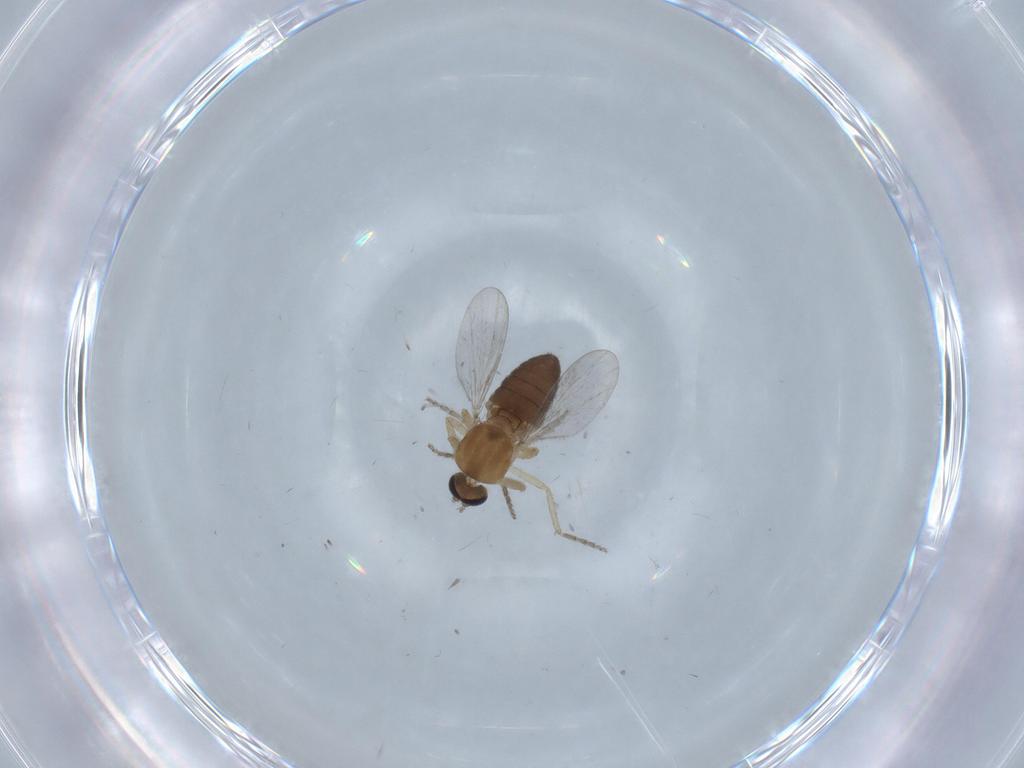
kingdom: Animalia
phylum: Arthropoda
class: Insecta
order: Diptera
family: Ceratopogonidae
